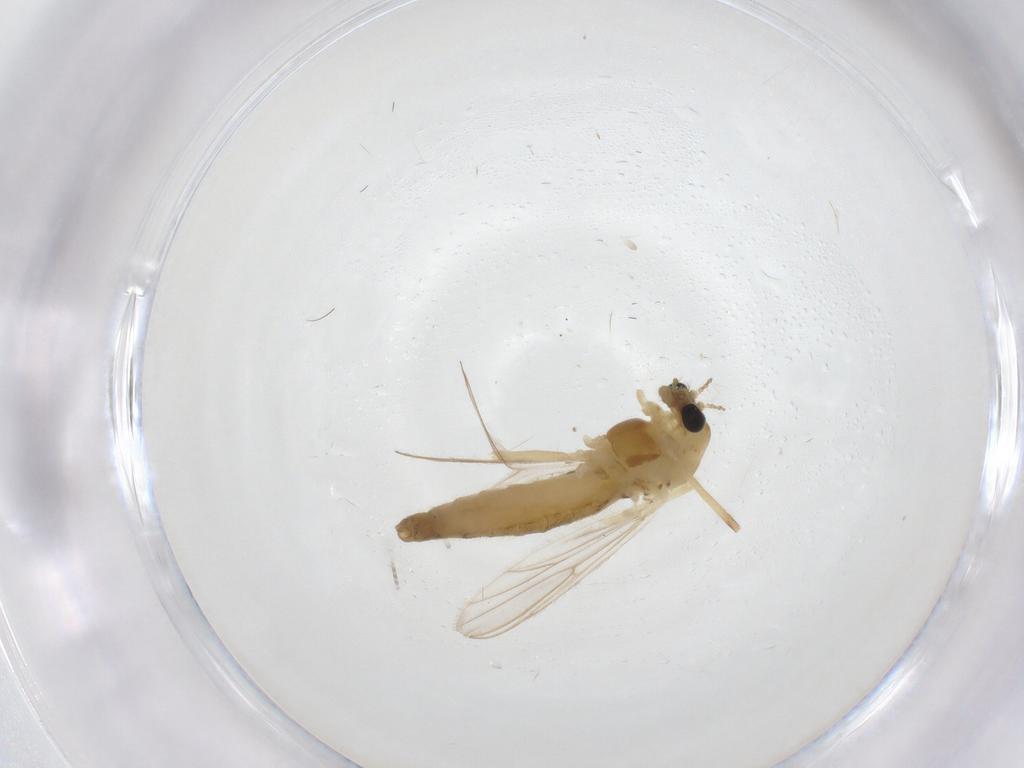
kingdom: Animalia
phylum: Arthropoda
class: Insecta
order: Diptera
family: Chironomidae
